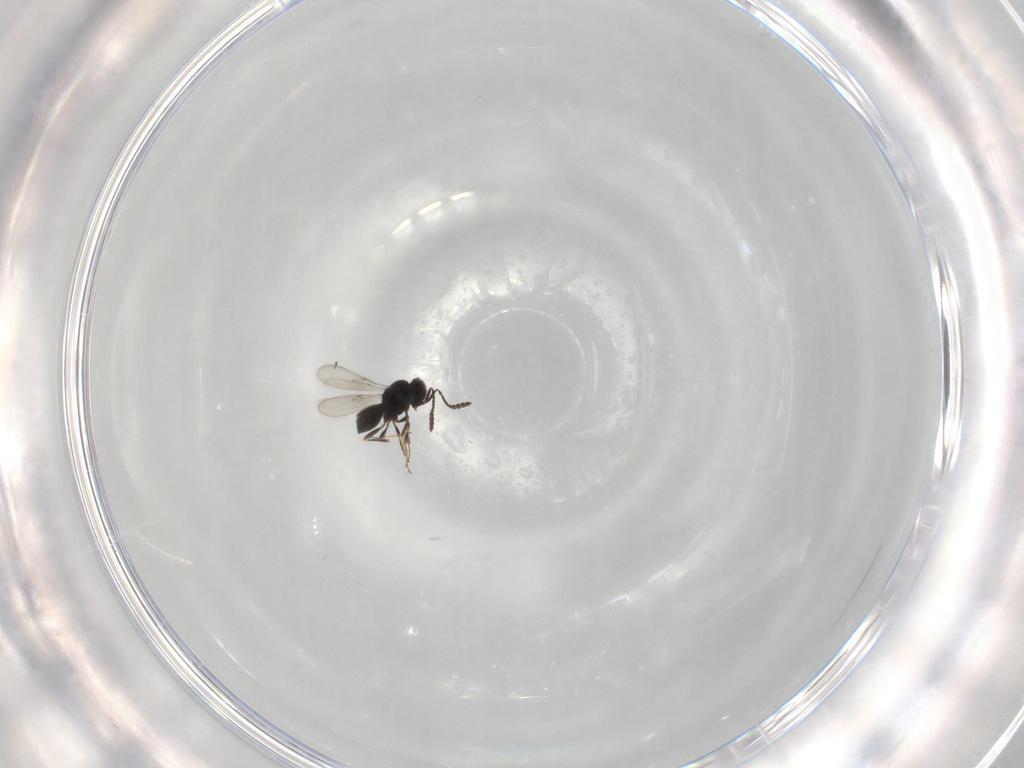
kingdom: Animalia
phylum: Arthropoda
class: Insecta
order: Hymenoptera
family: Scelionidae
